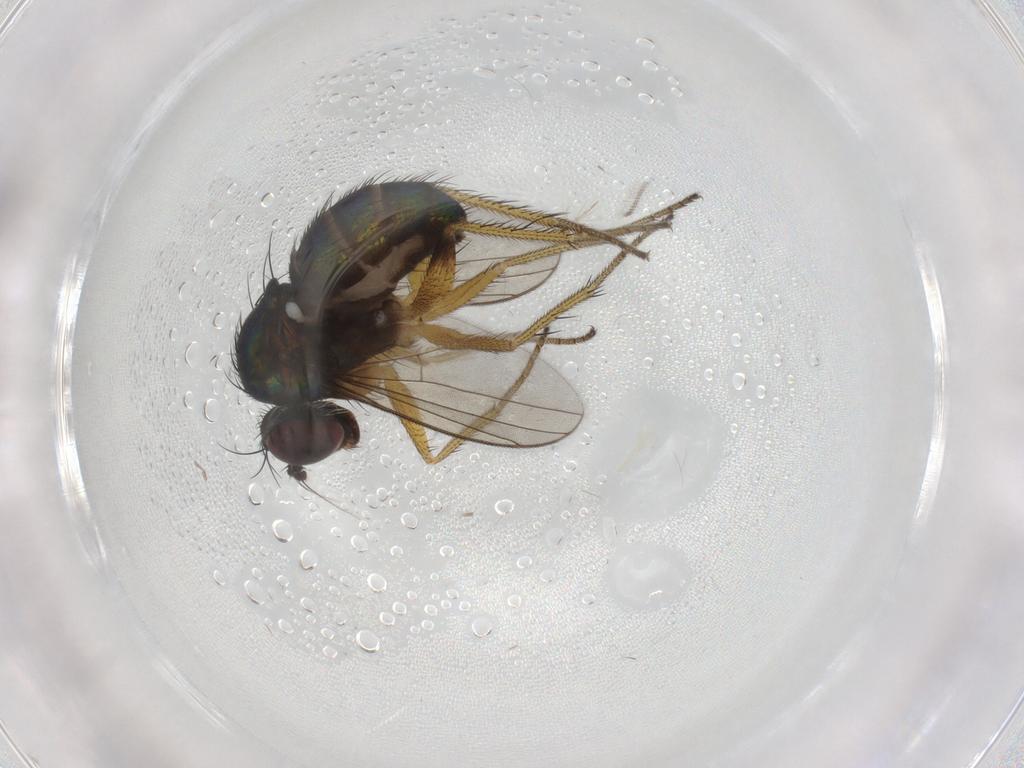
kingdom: Animalia
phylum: Arthropoda
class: Insecta
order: Diptera
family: Dolichopodidae
